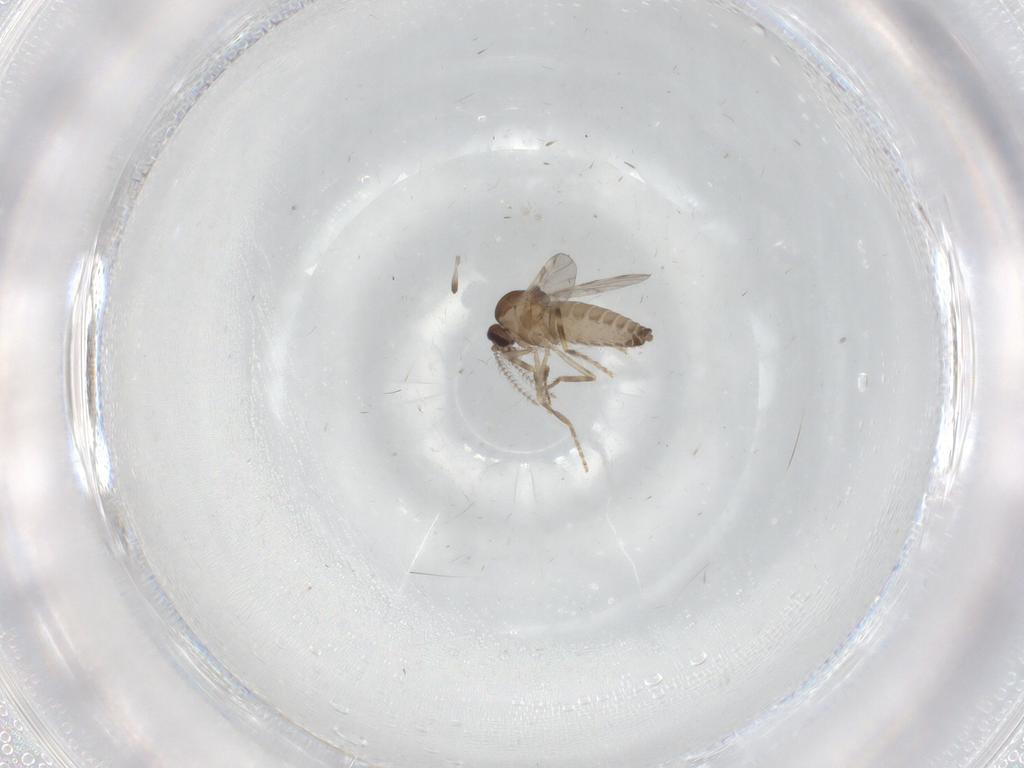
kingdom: Animalia
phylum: Arthropoda
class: Insecta
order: Diptera
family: Ceratopogonidae
